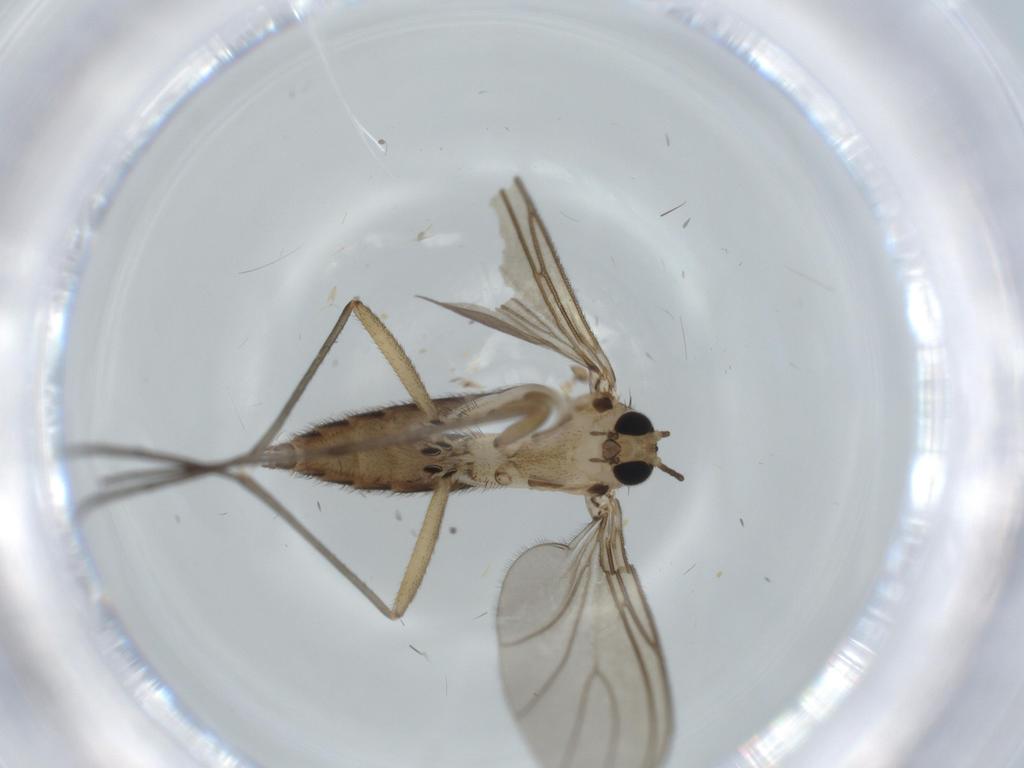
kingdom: Animalia
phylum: Arthropoda
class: Insecta
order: Diptera
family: Sciaridae
